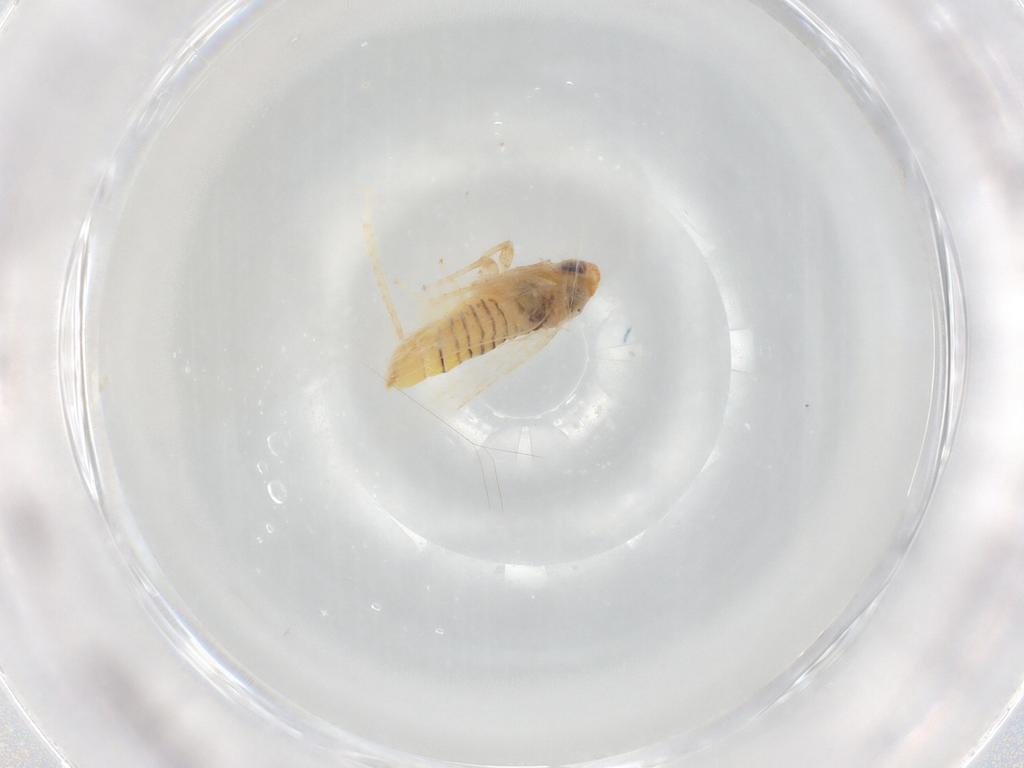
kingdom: Animalia
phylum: Arthropoda
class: Insecta
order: Hemiptera
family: Cicadellidae
